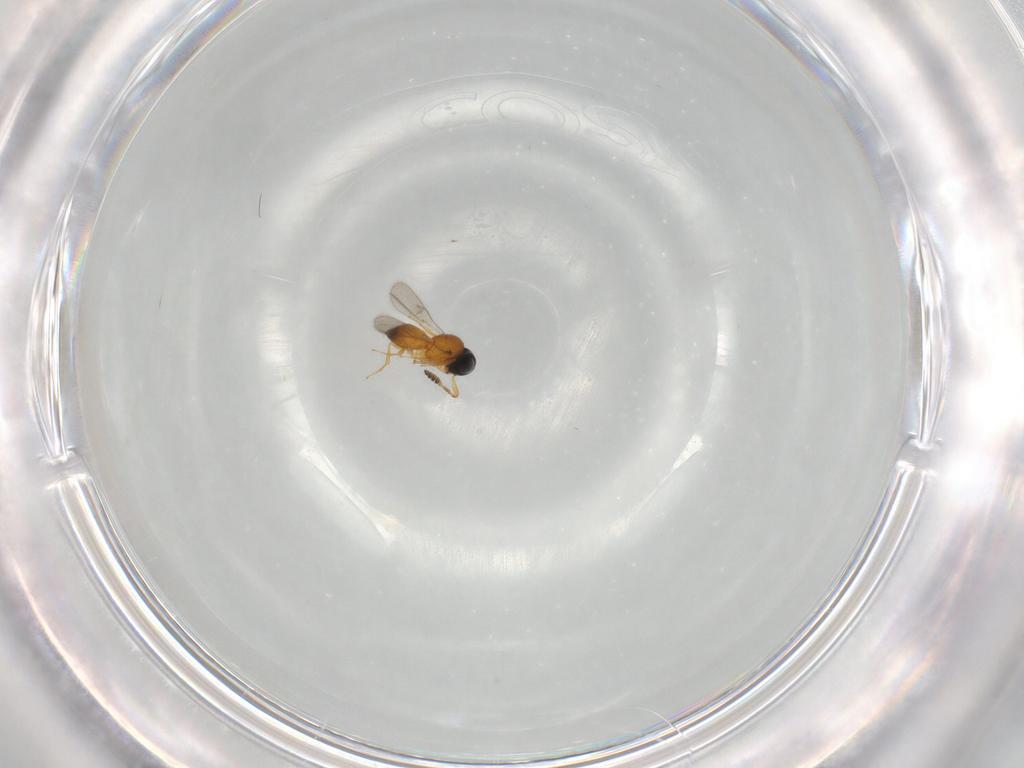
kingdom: Animalia
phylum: Arthropoda
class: Insecta
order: Hymenoptera
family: Scelionidae
